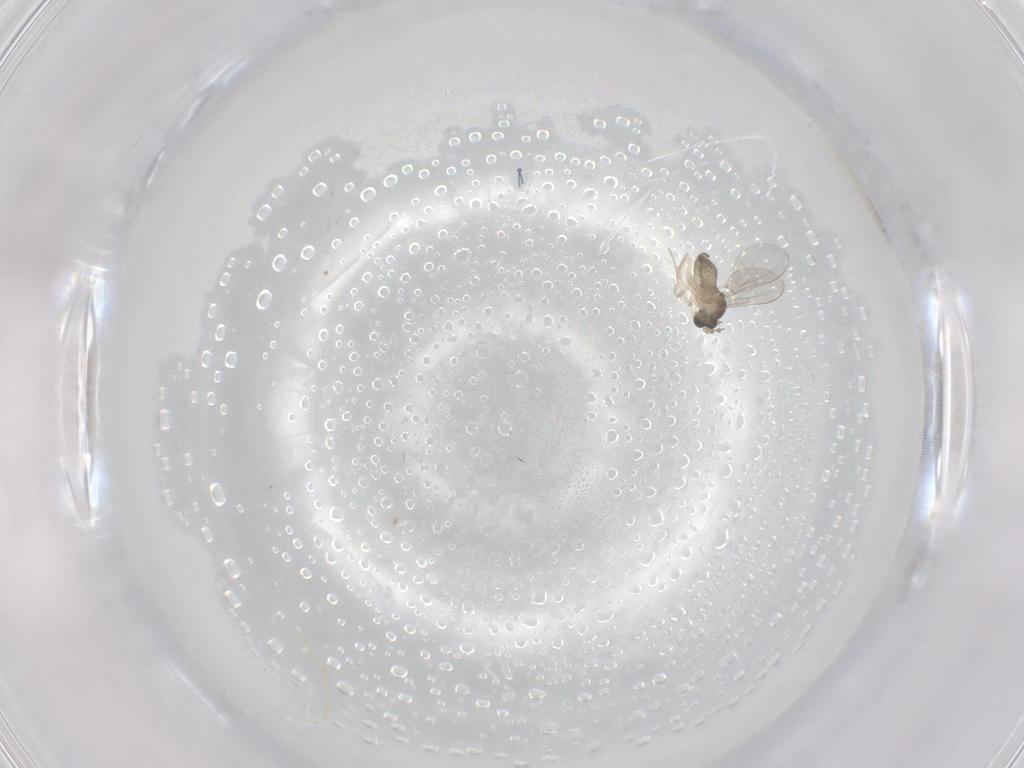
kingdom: Animalia
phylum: Arthropoda
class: Insecta
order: Diptera
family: Cecidomyiidae
